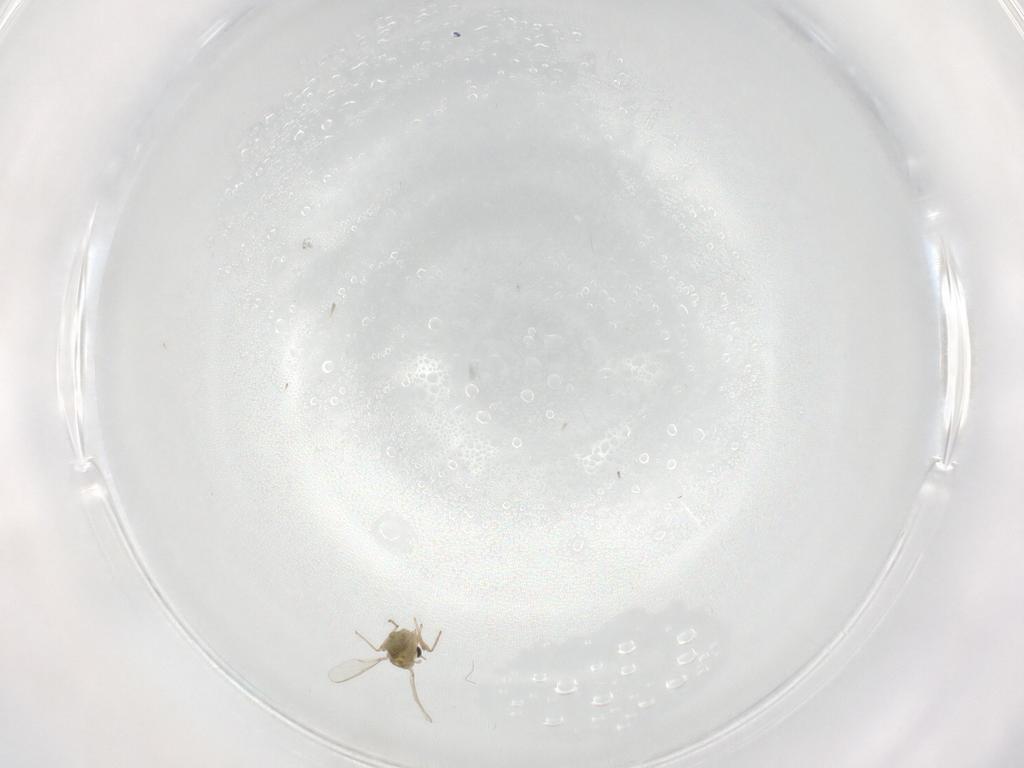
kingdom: Animalia
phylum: Arthropoda
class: Insecta
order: Diptera
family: Chironomidae
